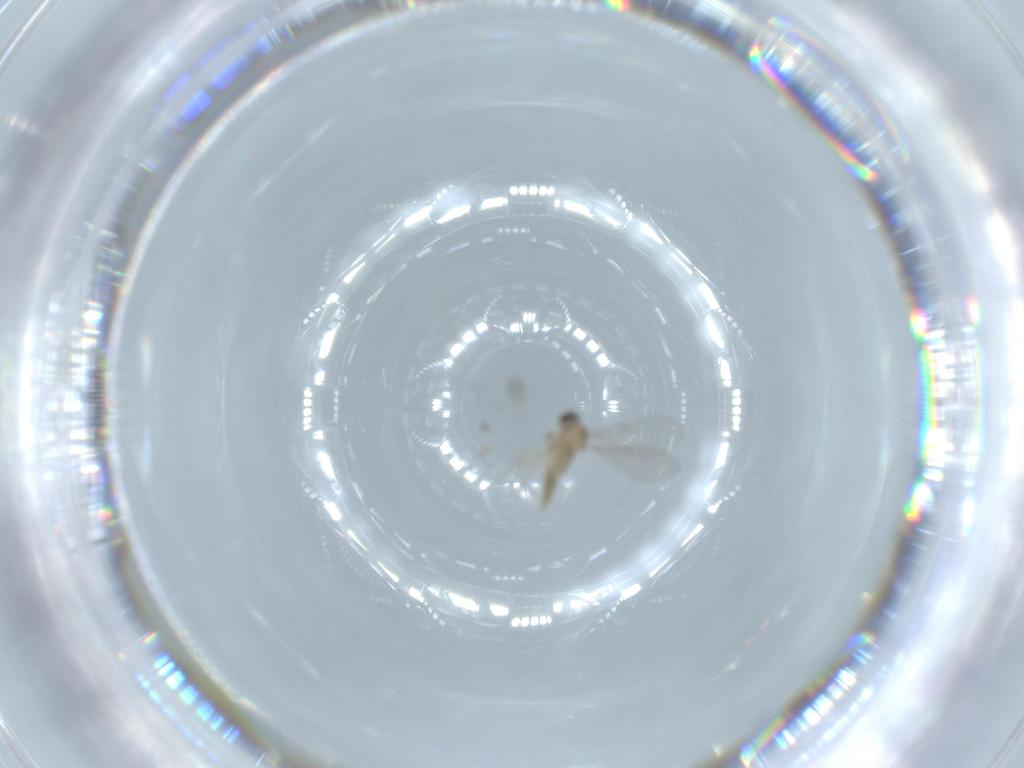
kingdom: Animalia
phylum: Arthropoda
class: Insecta
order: Diptera
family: Cecidomyiidae
